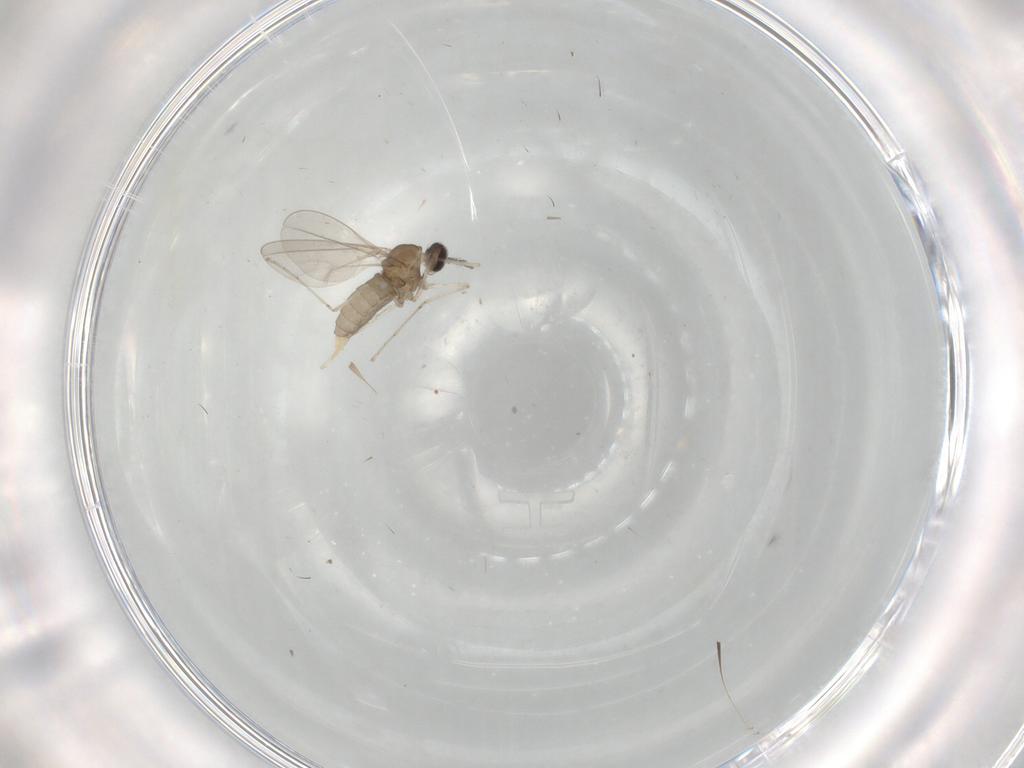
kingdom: Animalia
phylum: Arthropoda
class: Insecta
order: Diptera
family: Cecidomyiidae
